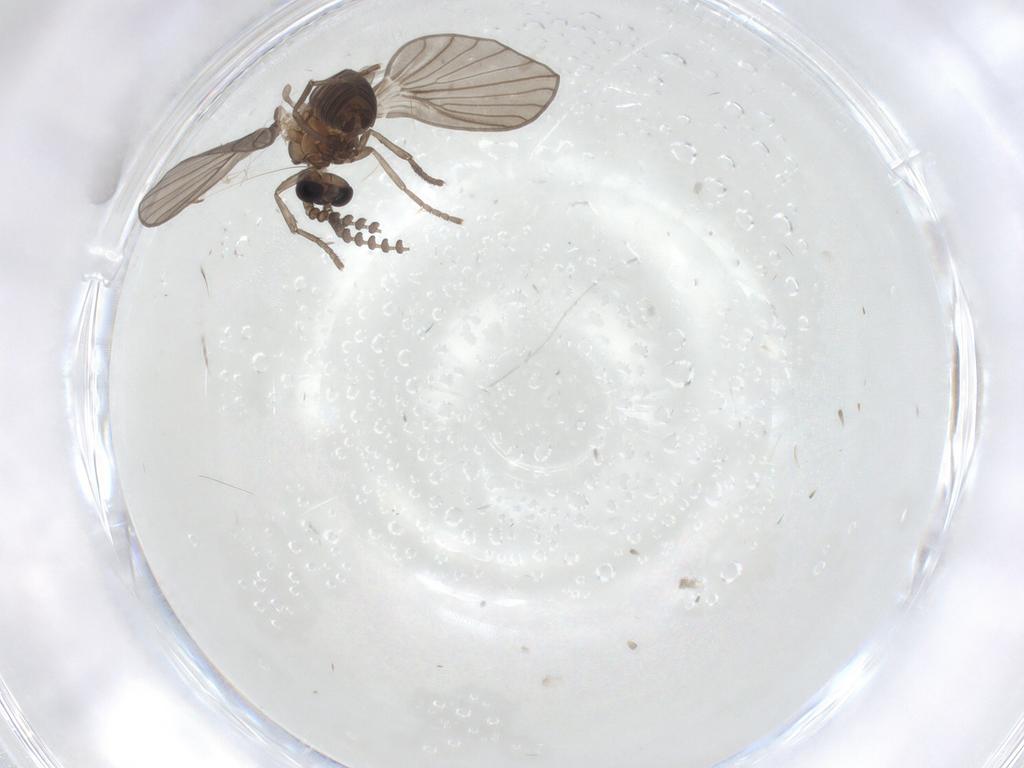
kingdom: Animalia
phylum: Arthropoda
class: Insecta
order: Diptera
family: Psychodidae
